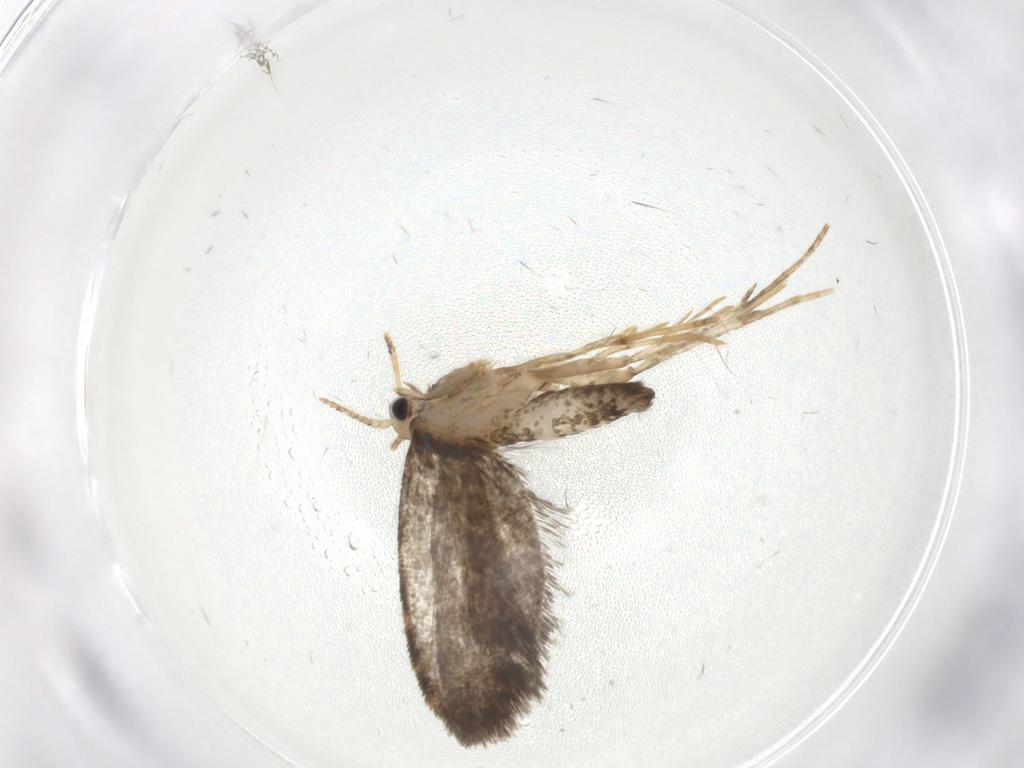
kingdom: Animalia
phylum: Arthropoda
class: Insecta
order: Lepidoptera
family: Psychidae
